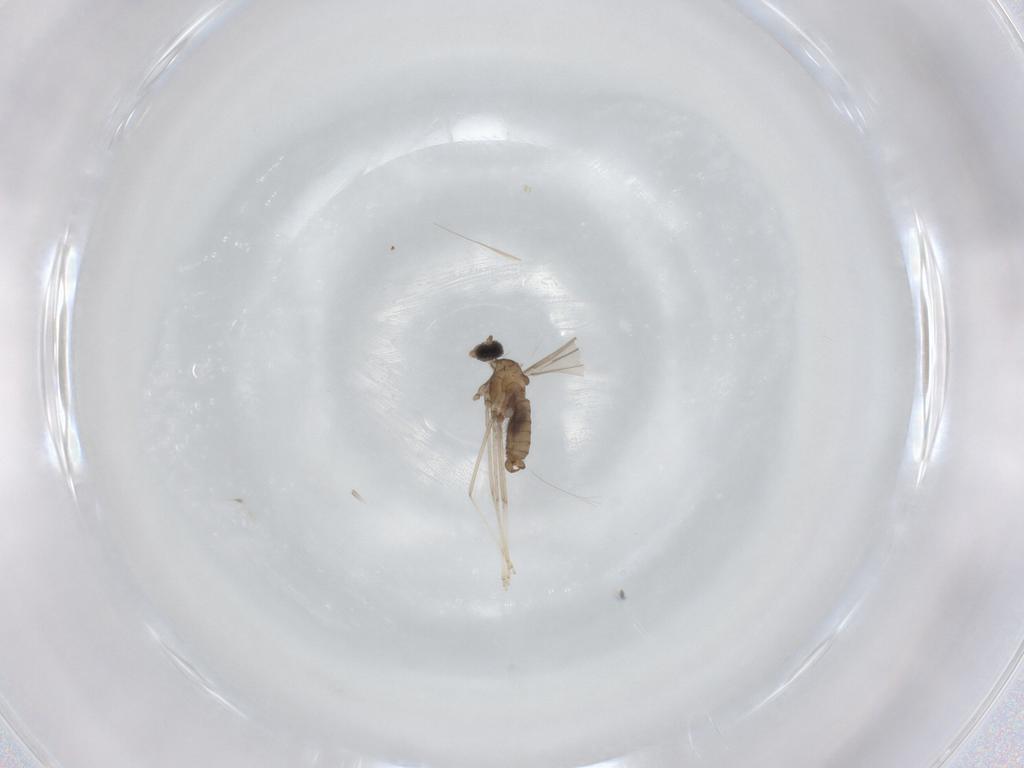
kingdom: Animalia
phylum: Arthropoda
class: Insecta
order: Diptera
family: Cecidomyiidae
